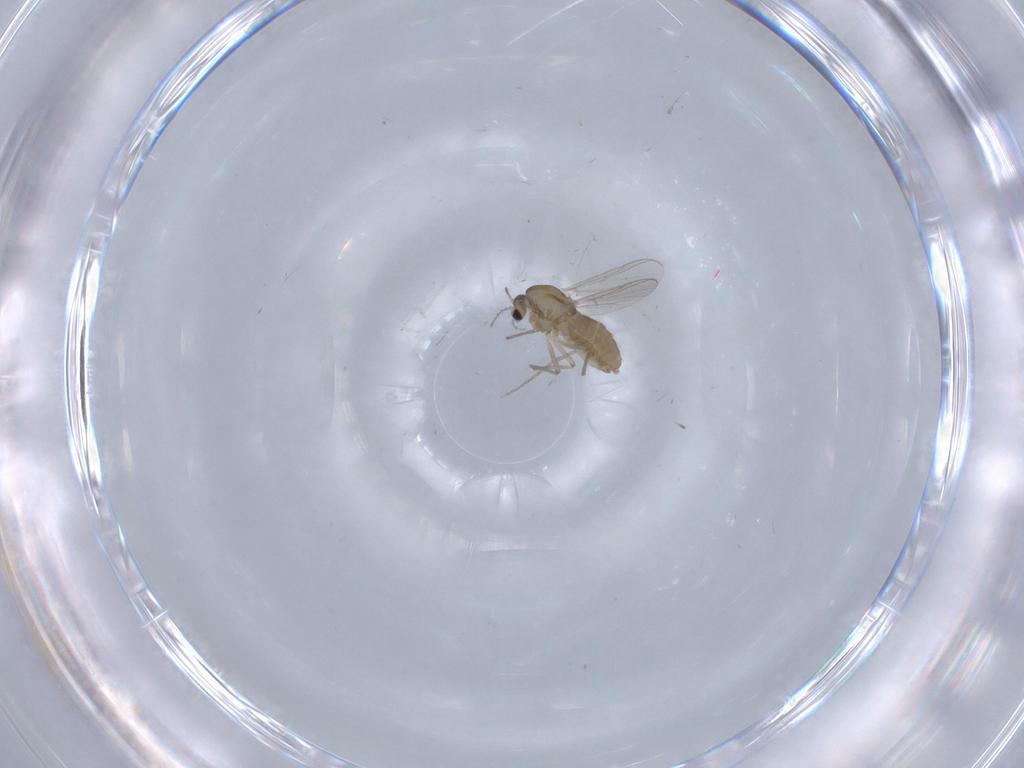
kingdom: Animalia
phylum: Arthropoda
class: Insecta
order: Diptera
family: Chironomidae
